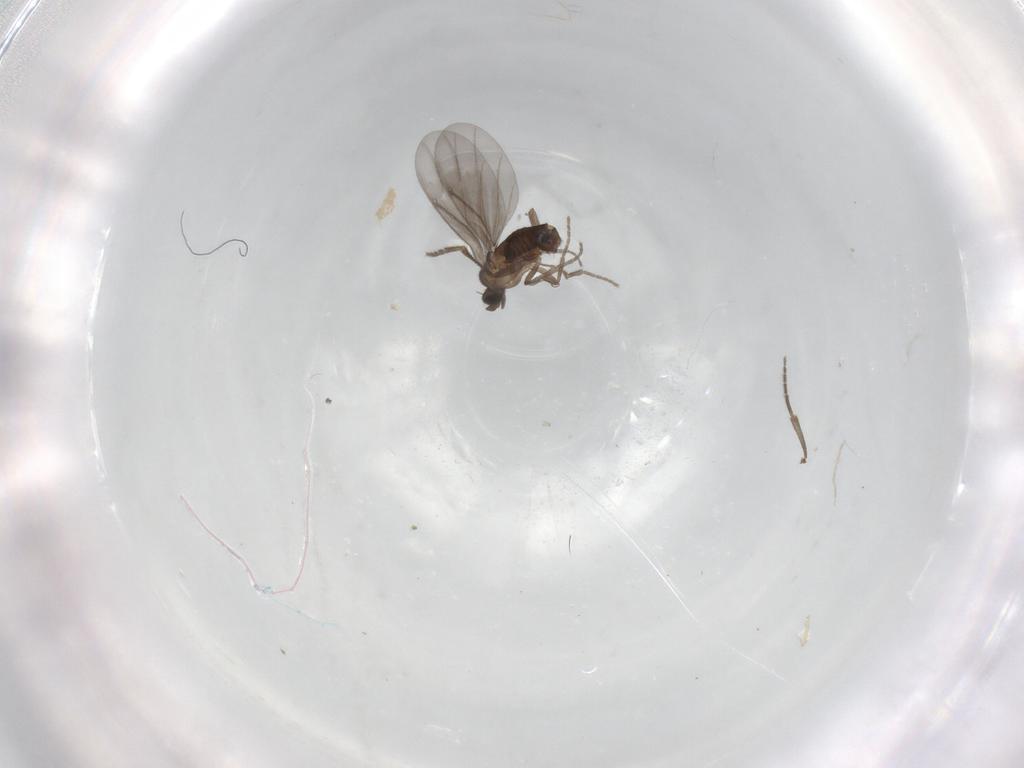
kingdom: Animalia
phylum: Arthropoda
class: Insecta
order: Diptera
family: Phoridae
